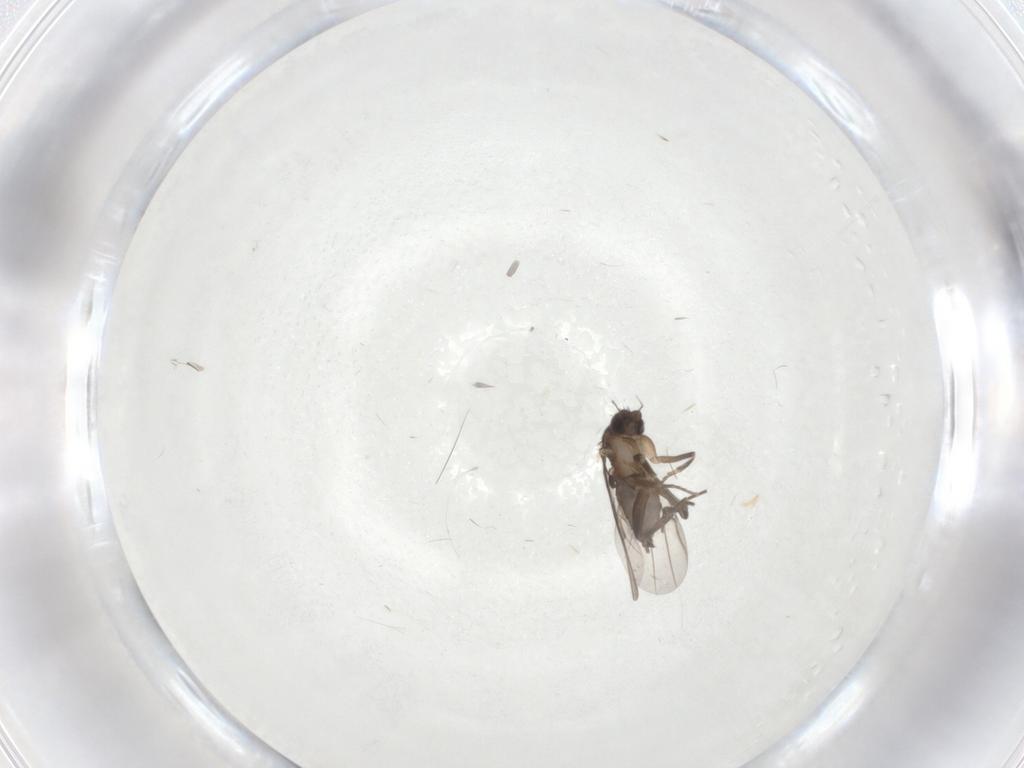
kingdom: Animalia
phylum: Arthropoda
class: Insecta
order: Diptera
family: Phoridae
